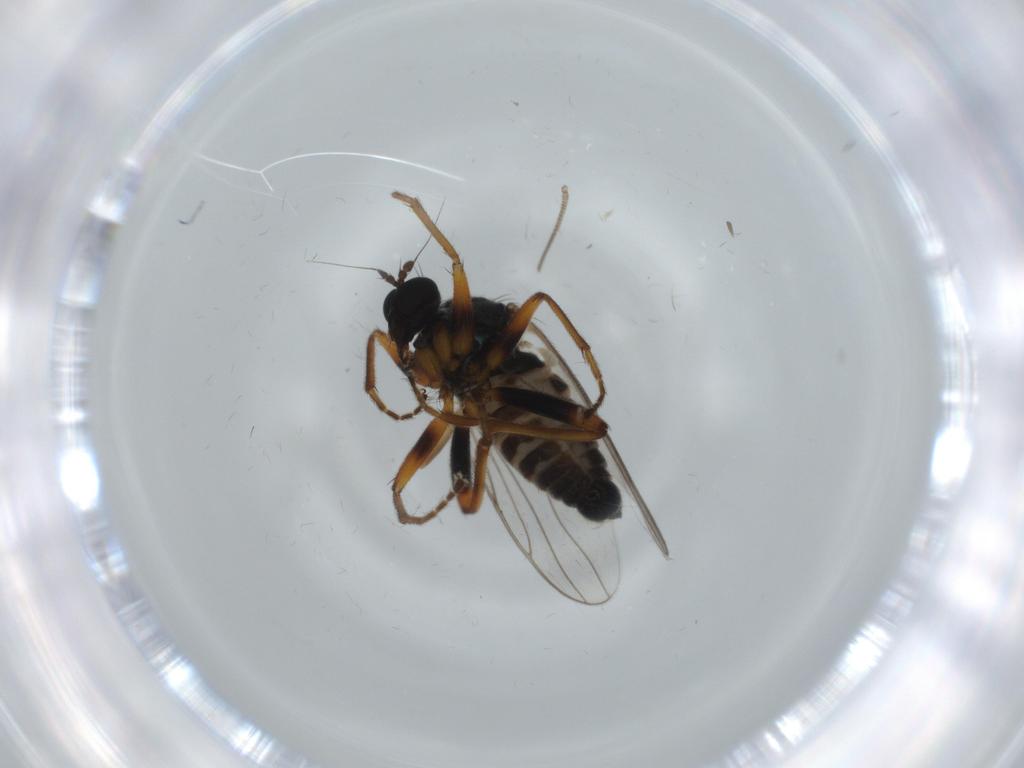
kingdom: Animalia
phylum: Arthropoda
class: Insecta
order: Diptera
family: Hybotidae
